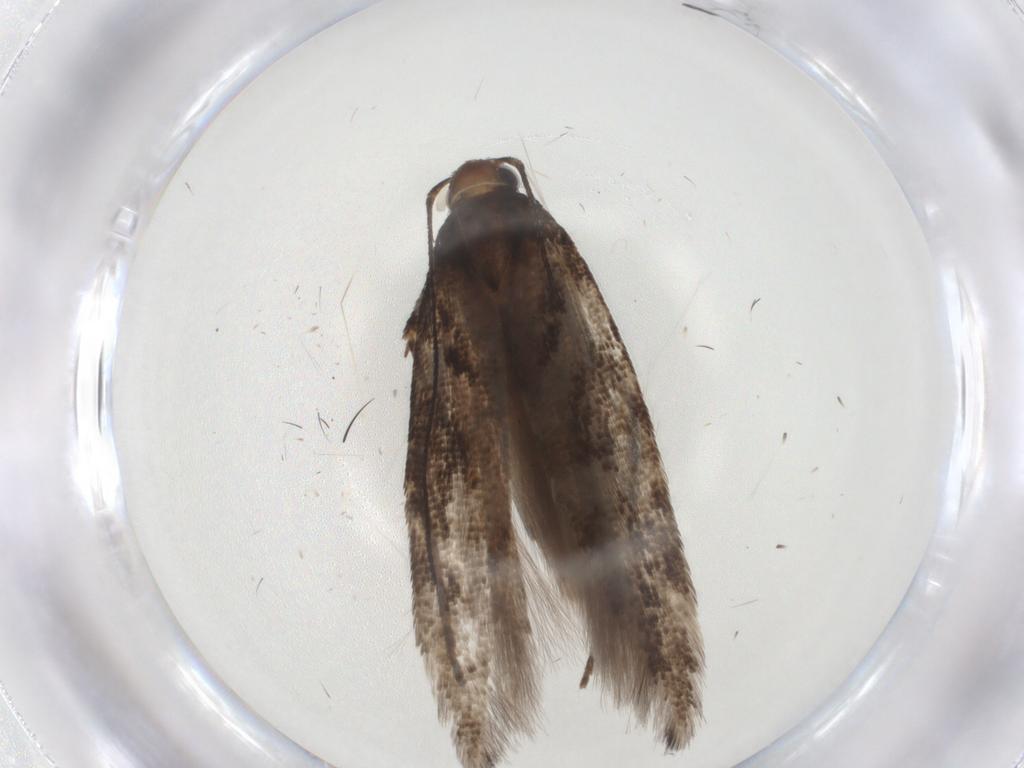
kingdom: Animalia
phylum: Arthropoda
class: Insecta
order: Lepidoptera
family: Gelechiidae
